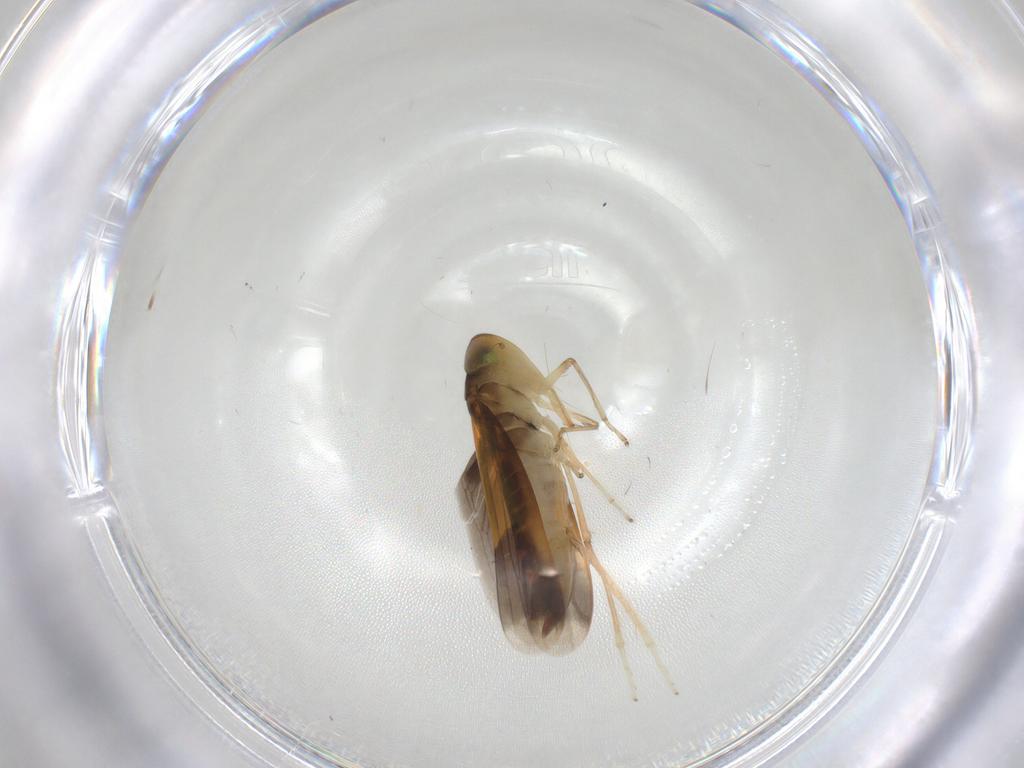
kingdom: Animalia
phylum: Arthropoda
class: Insecta
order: Hemiptera
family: Cicadellidae
